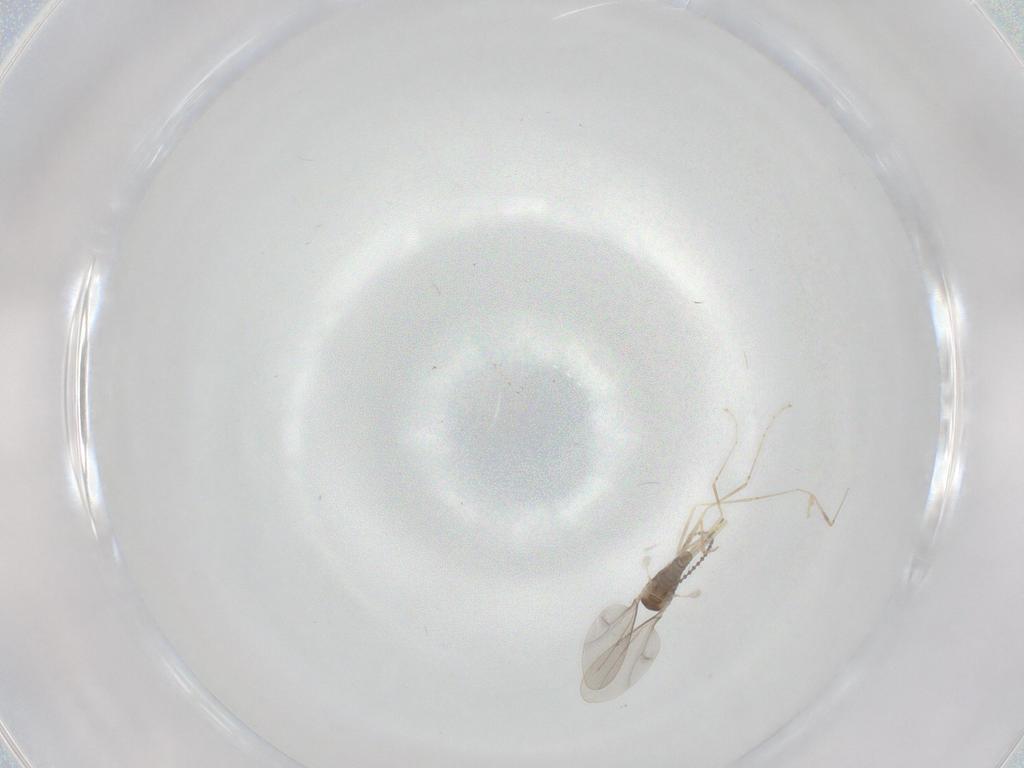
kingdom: Animalia
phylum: Arthropoda
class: Insecta
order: Diptera
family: Cecidomyiidae
